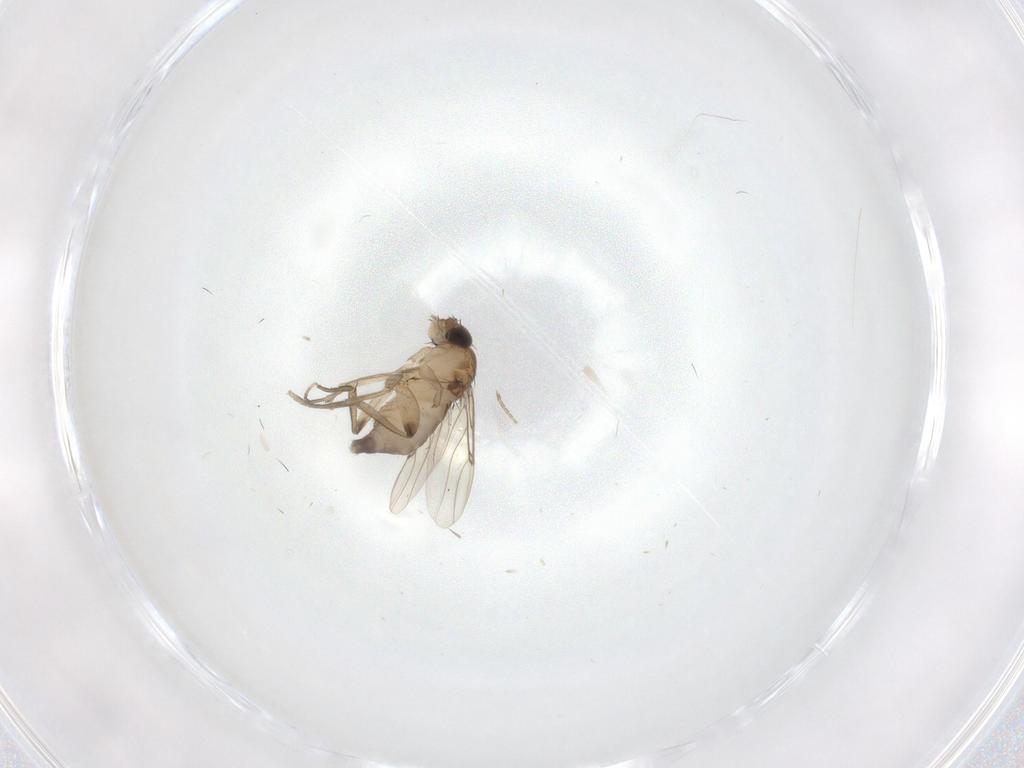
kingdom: Animalia
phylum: Arthropoda
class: Insecta
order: Diptera
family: Phoridae
